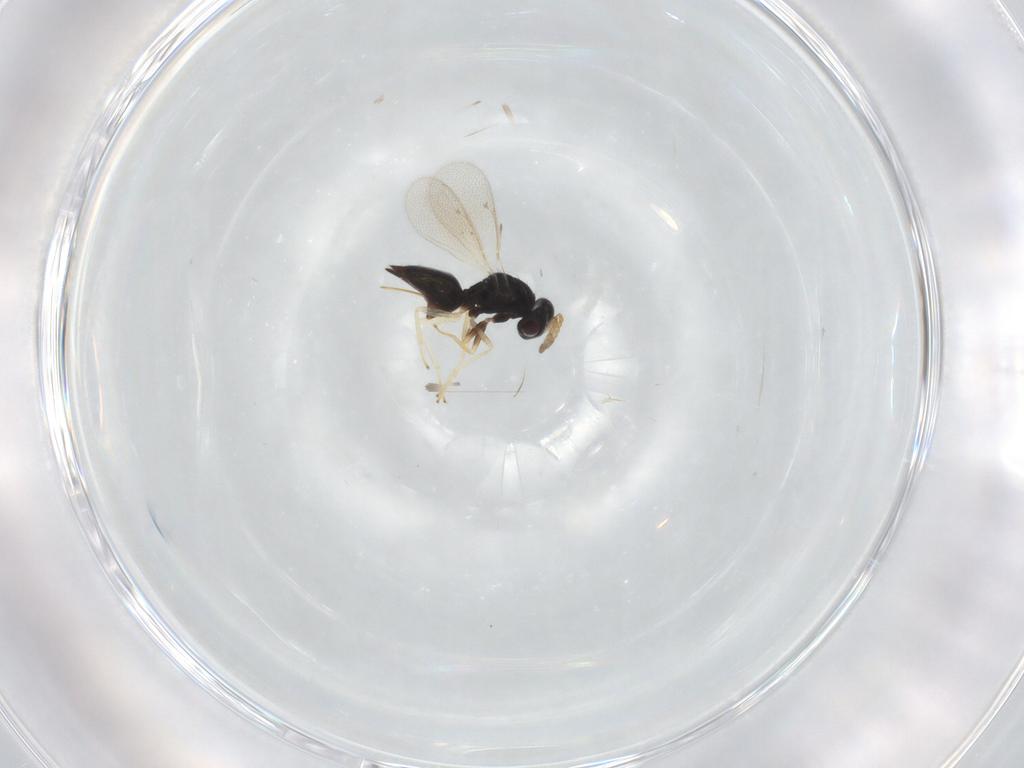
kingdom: Animalia
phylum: Arthropoda
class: Insecta
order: Hymenoptera
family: Eulophidae
